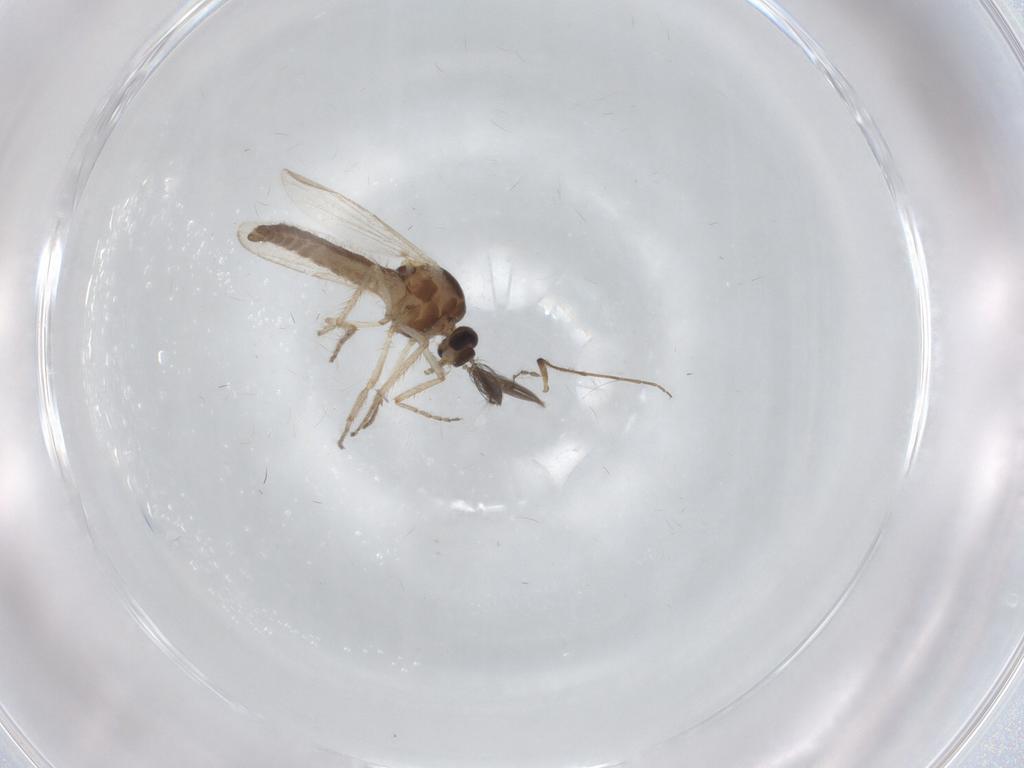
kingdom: Animalia
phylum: Arthropoda
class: Insecta
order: Diptera
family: Chironomidae
